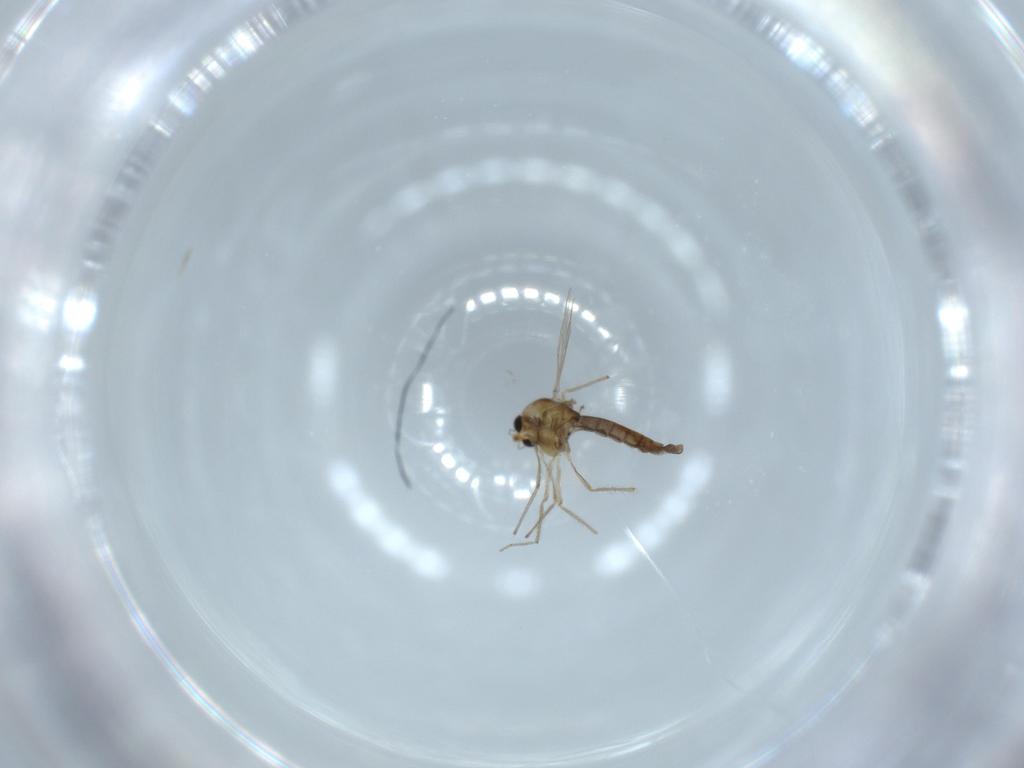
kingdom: Animalia
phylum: Arthropoda
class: Insecta
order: Diptera
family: Chironomidae
